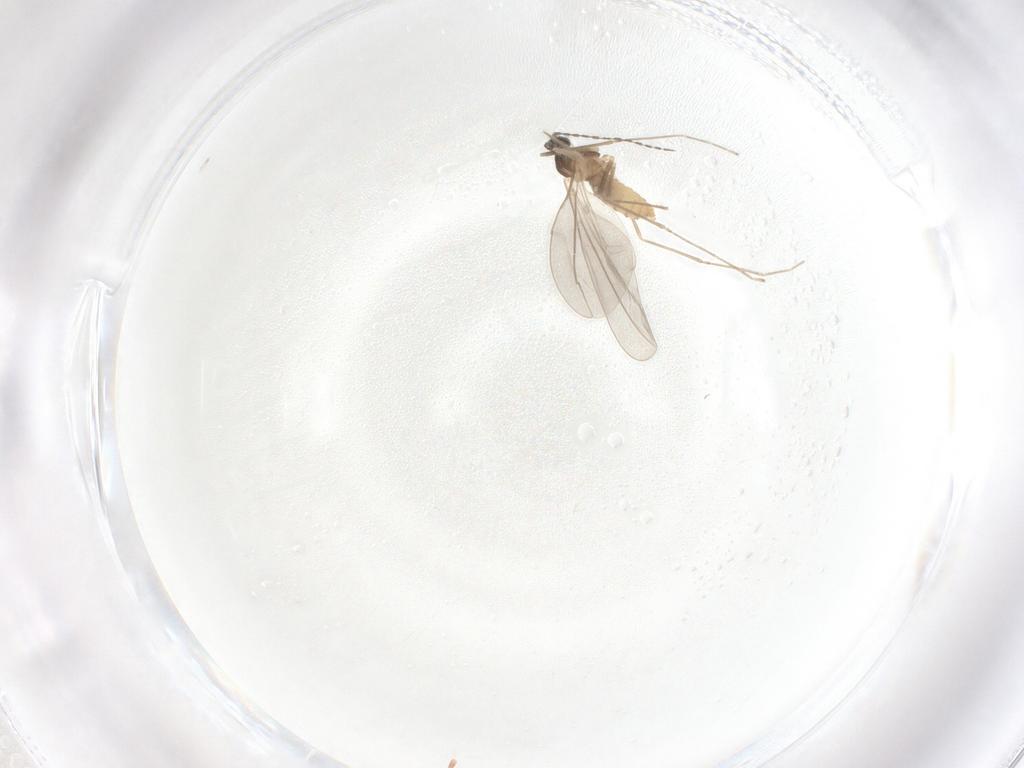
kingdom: Animalia
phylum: Arthropoda
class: Insecta
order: Diptera
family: Cecidomyiidae
